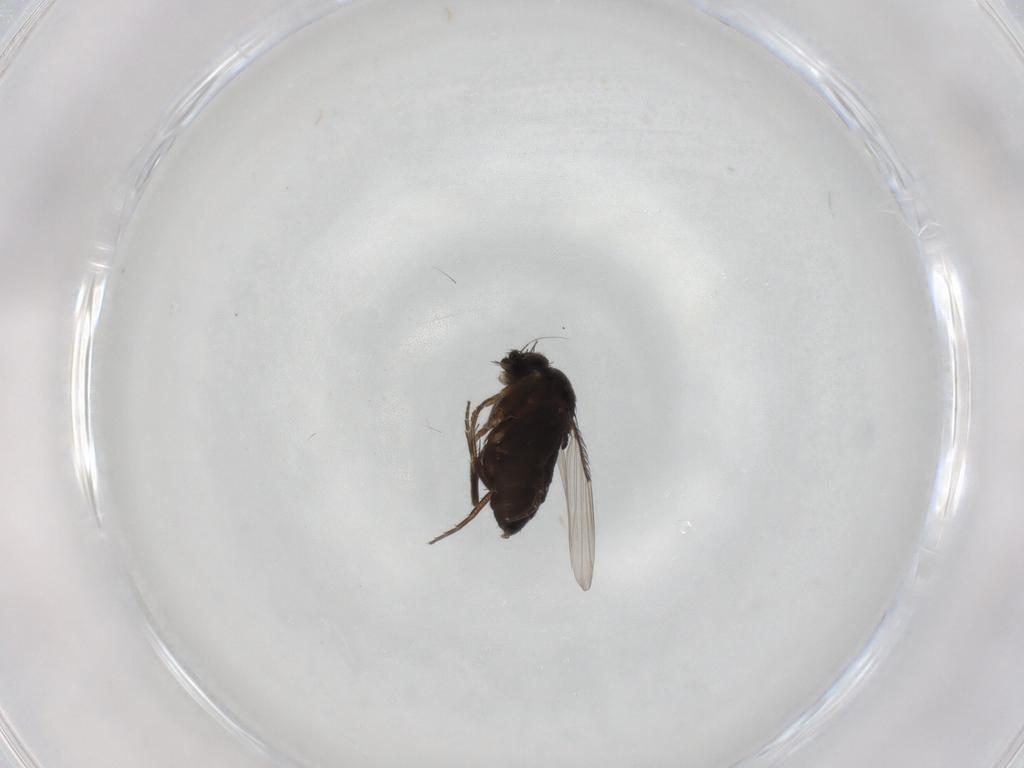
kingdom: Animalia
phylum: Arthropoda
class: Insecta
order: Diptera
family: Phoridae
